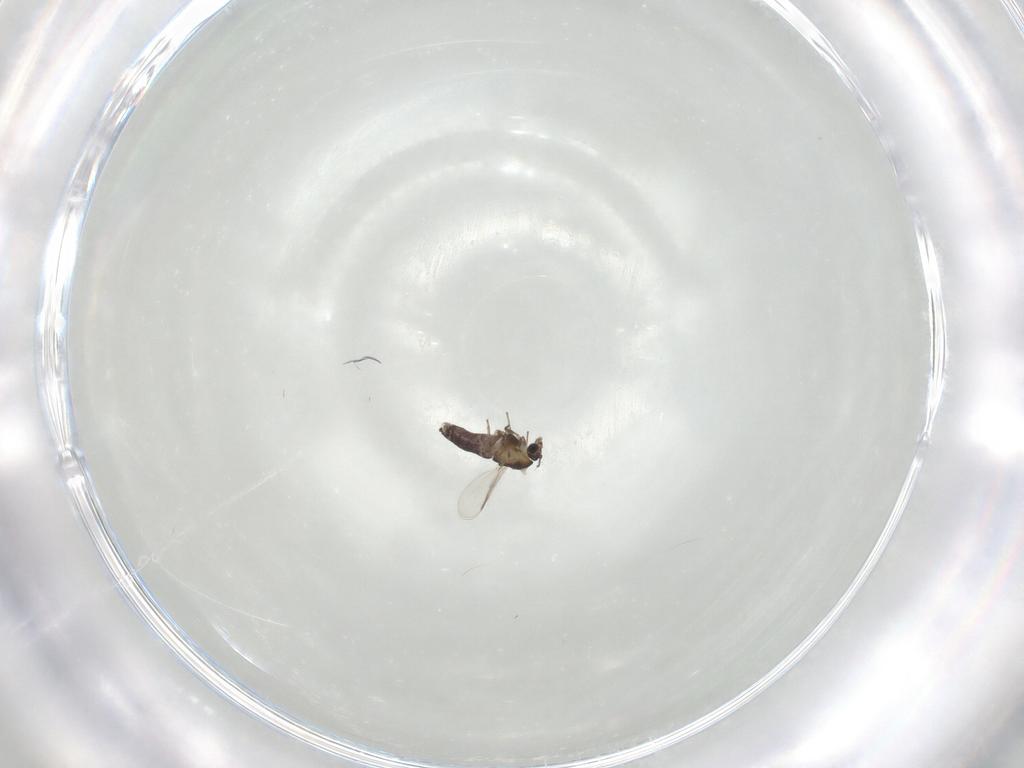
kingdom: Animalia
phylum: Arthropoda
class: Insecta
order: Diptera
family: Chironomidae
